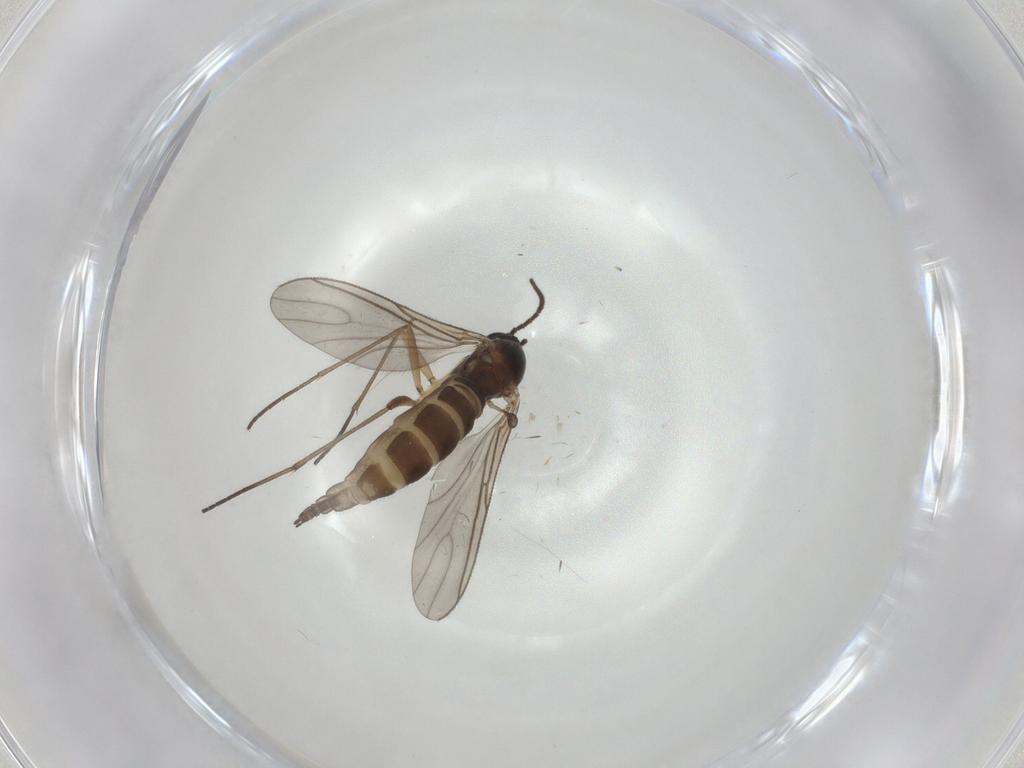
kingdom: Animalia
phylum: Arthropoda
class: Insecta
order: Diptera
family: Sciaridae
